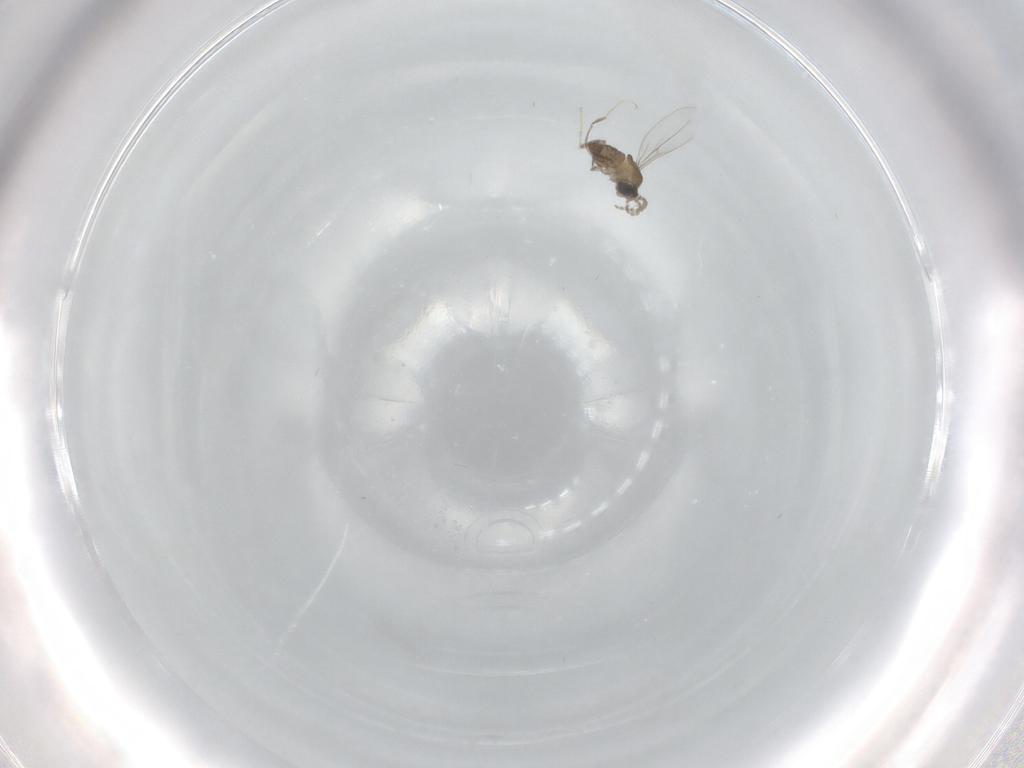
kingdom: Animalia
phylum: Arthropoda
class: Insecta
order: Diptera
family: Cecidomyiidae
